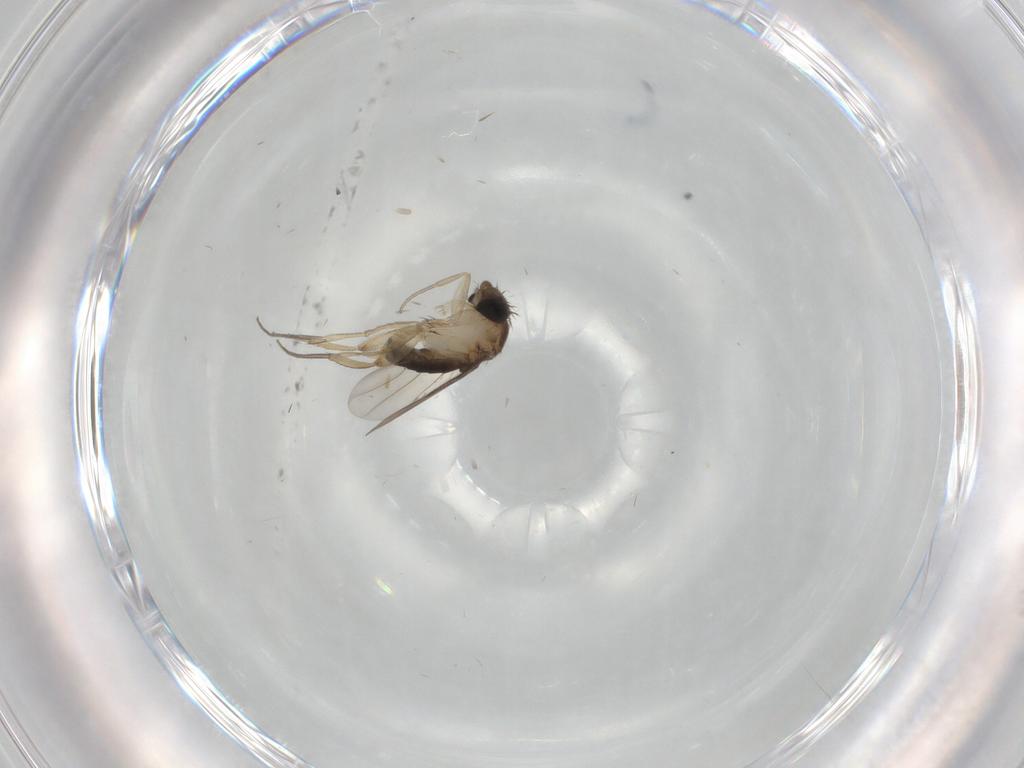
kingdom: Animalia
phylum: Arthropoda
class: Insecta
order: Diptera
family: Phoridae
